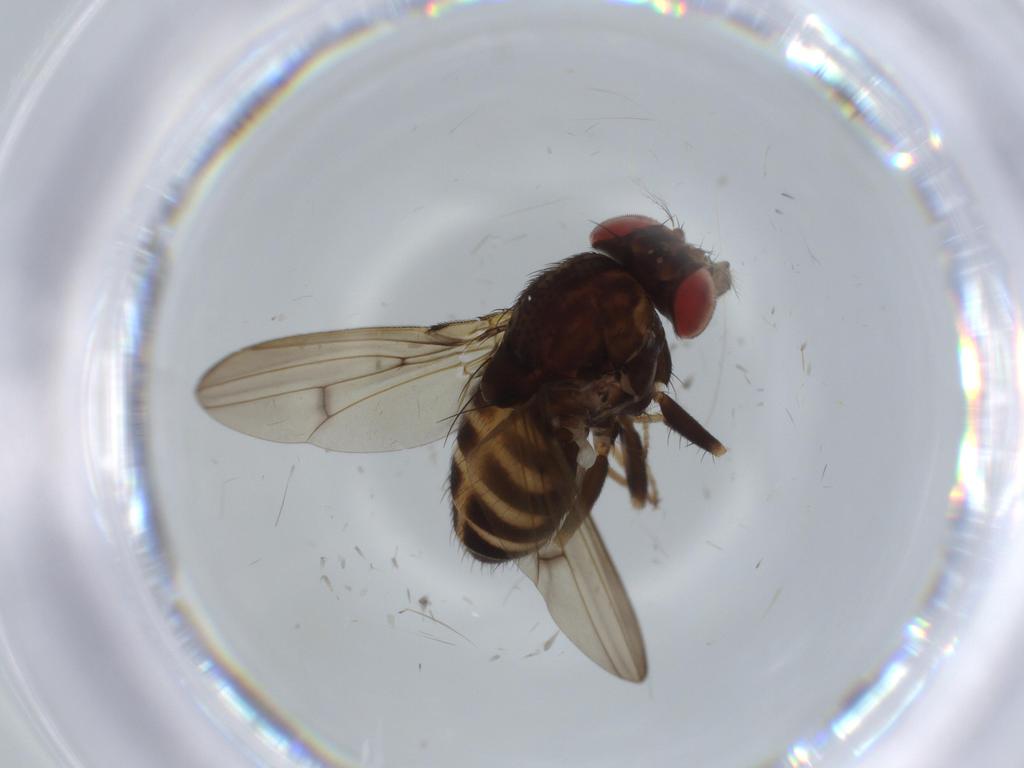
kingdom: Animalia
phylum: Arthropoda
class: Insecta
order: Diptera
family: Drosophilidae
